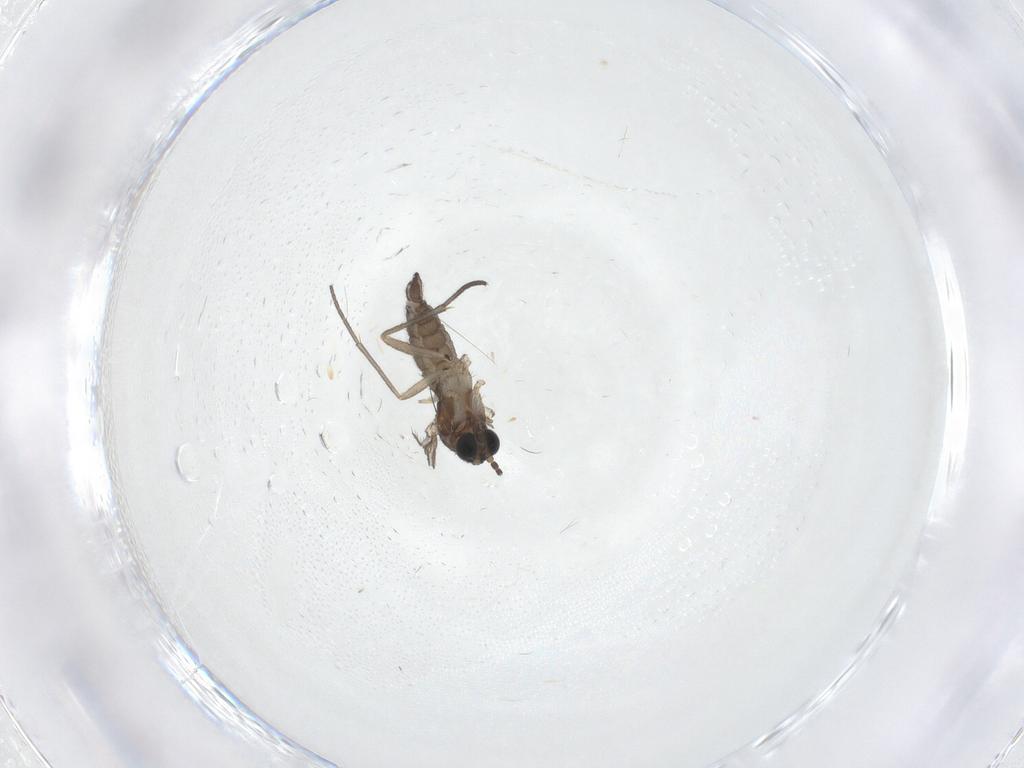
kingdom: Animalia
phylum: Arthropoda
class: Insecta
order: Diptera
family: Sciaridae
